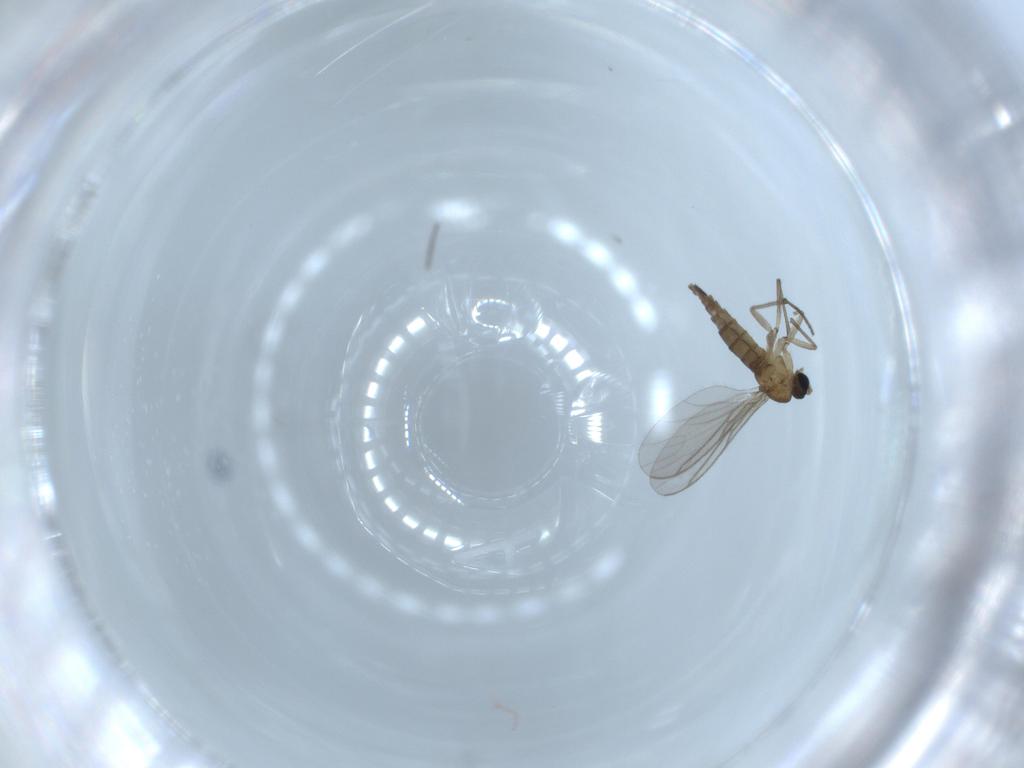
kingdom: Animalia
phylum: Arthropoda
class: Insecta
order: Diptera
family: Sciaridae
